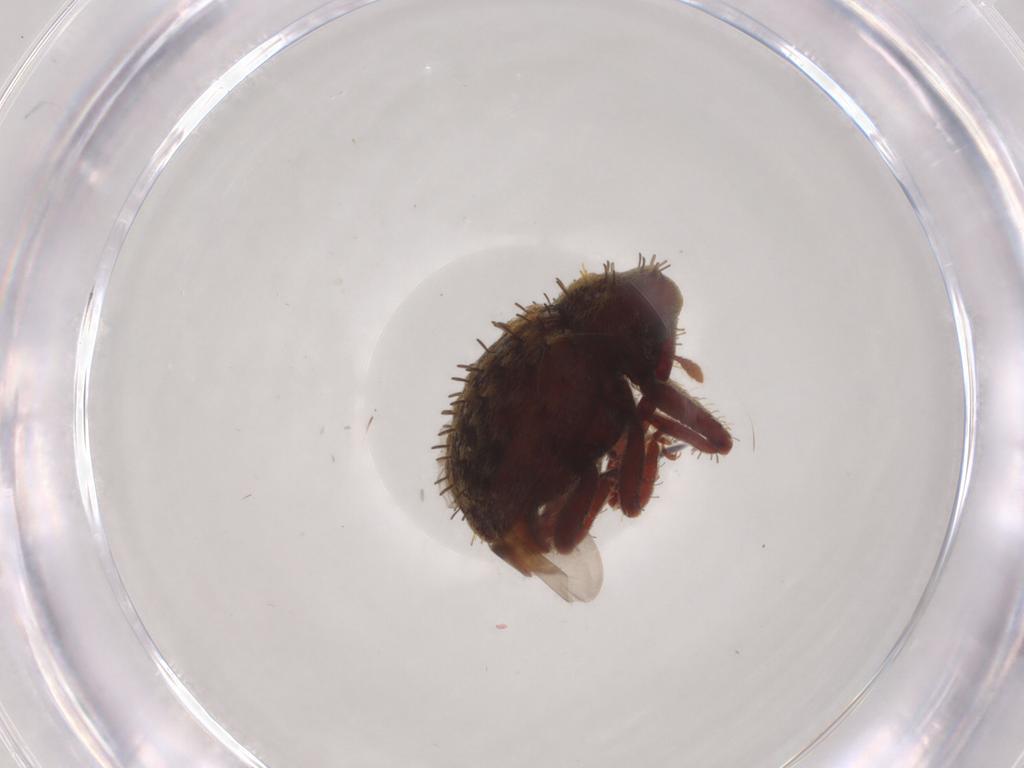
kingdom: Animalia
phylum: Arthropoda
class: Insecta
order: Coleoptera
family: Curculionidae
